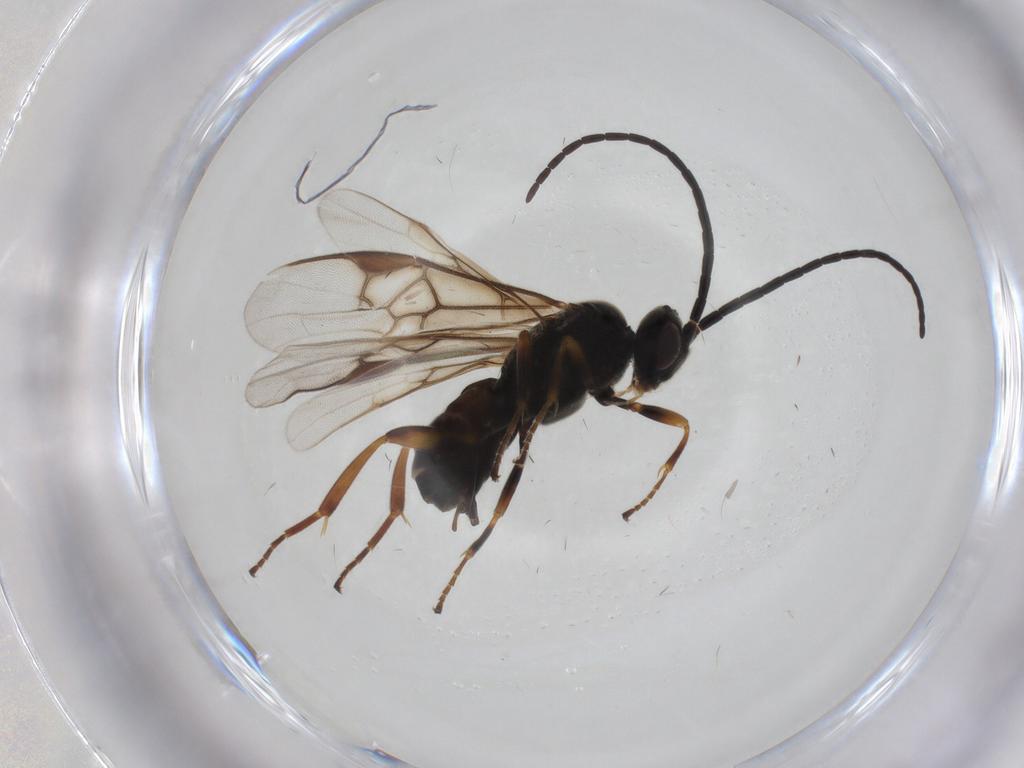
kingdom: Animalia
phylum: Arthropoda
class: Insecta
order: Hymenoptera
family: Braconidae
